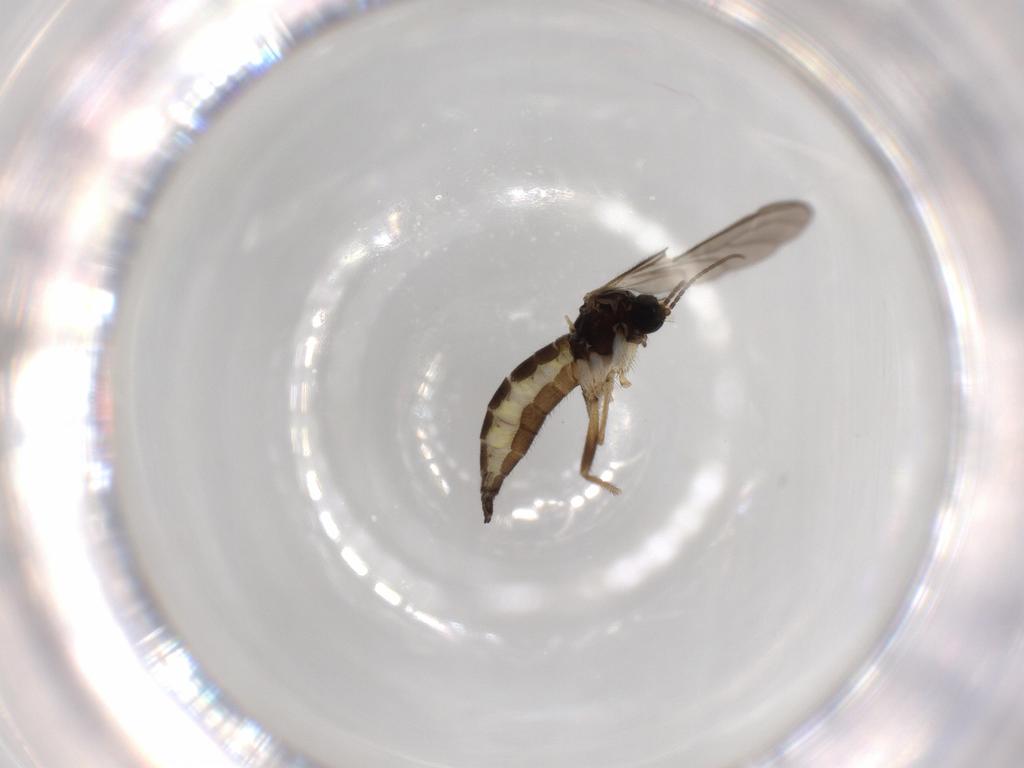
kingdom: Animalia
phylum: Arthropoda
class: Insecta
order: Diptera
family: Sciaridae
